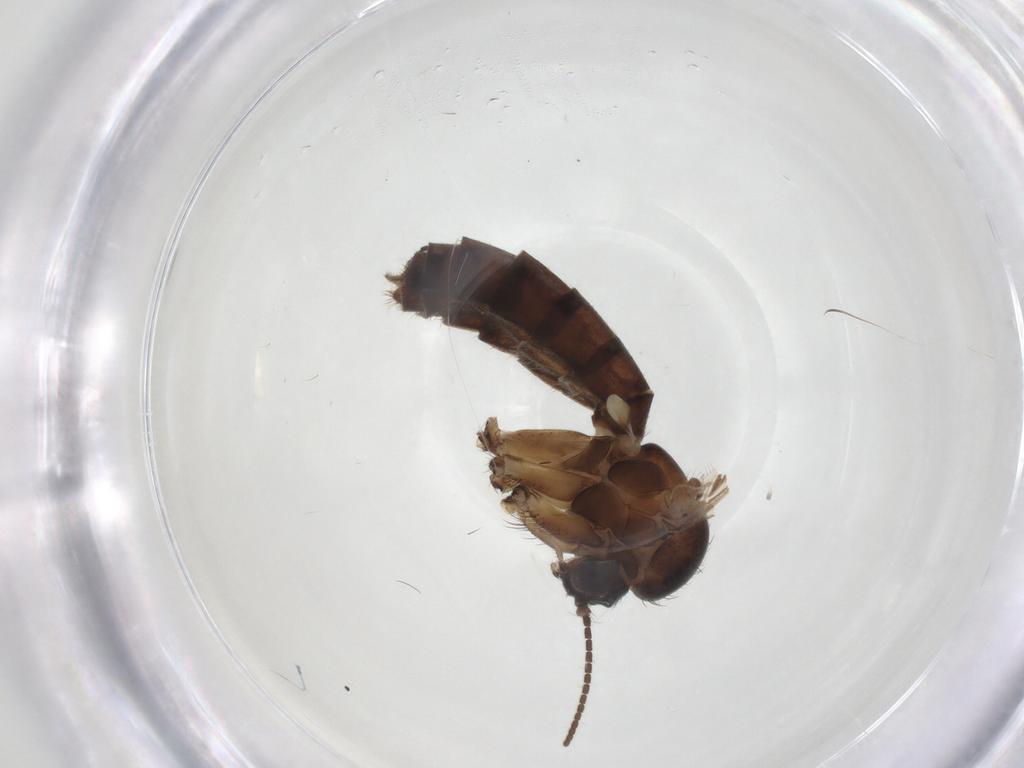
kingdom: Animalia
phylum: Arthropoda
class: Insecta
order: Diptera
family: Ceratopogonidae
